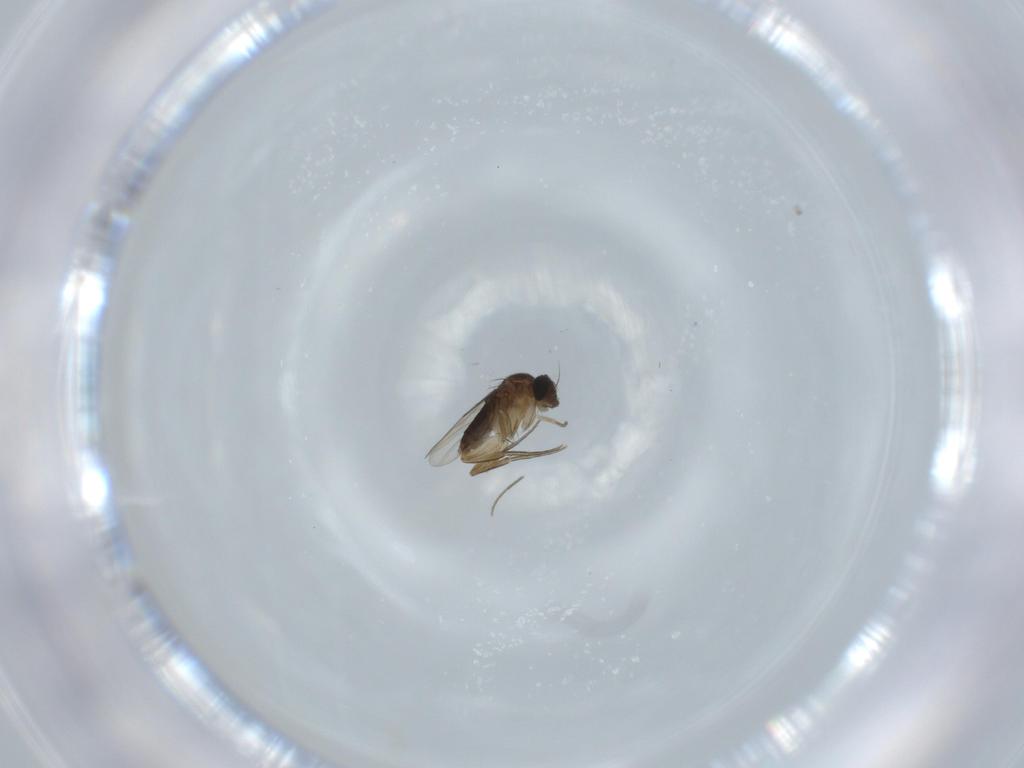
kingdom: Animalia
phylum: Arthropoda
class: Insecta
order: Diptera
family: Phoridae
